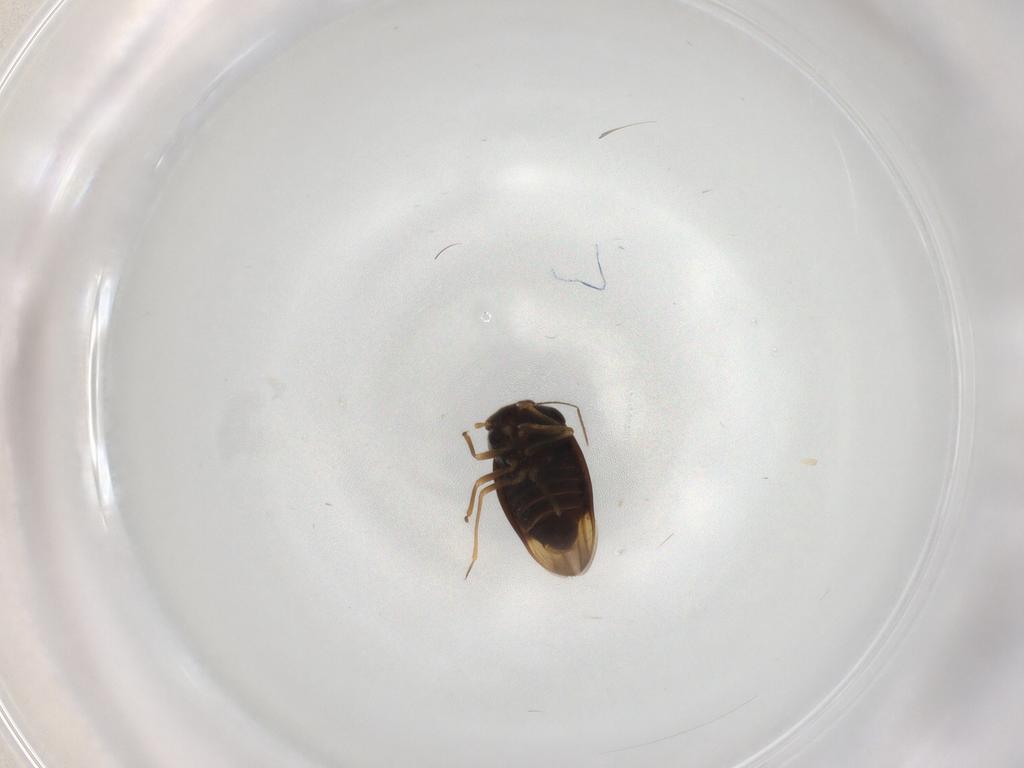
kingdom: Animalia
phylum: Arthropoda
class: Insecta
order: Hemiptera
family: Schizopteridae
